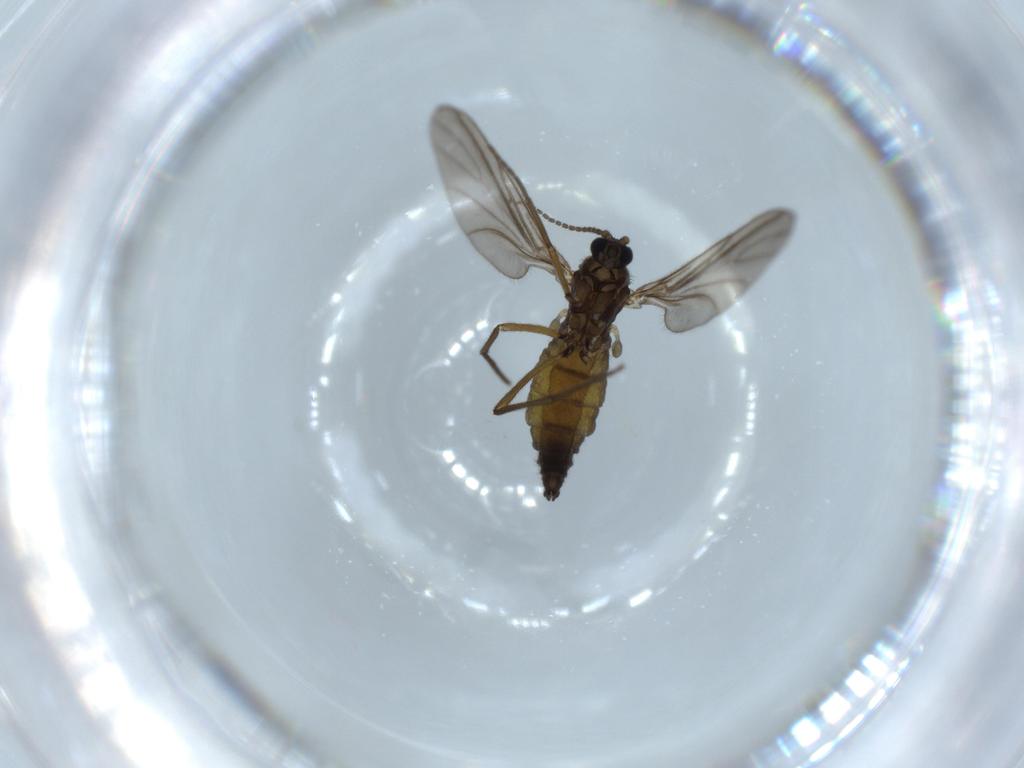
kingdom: Animalia
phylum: Arthropoda
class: Insecta
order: Diptera
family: Sciaridae
